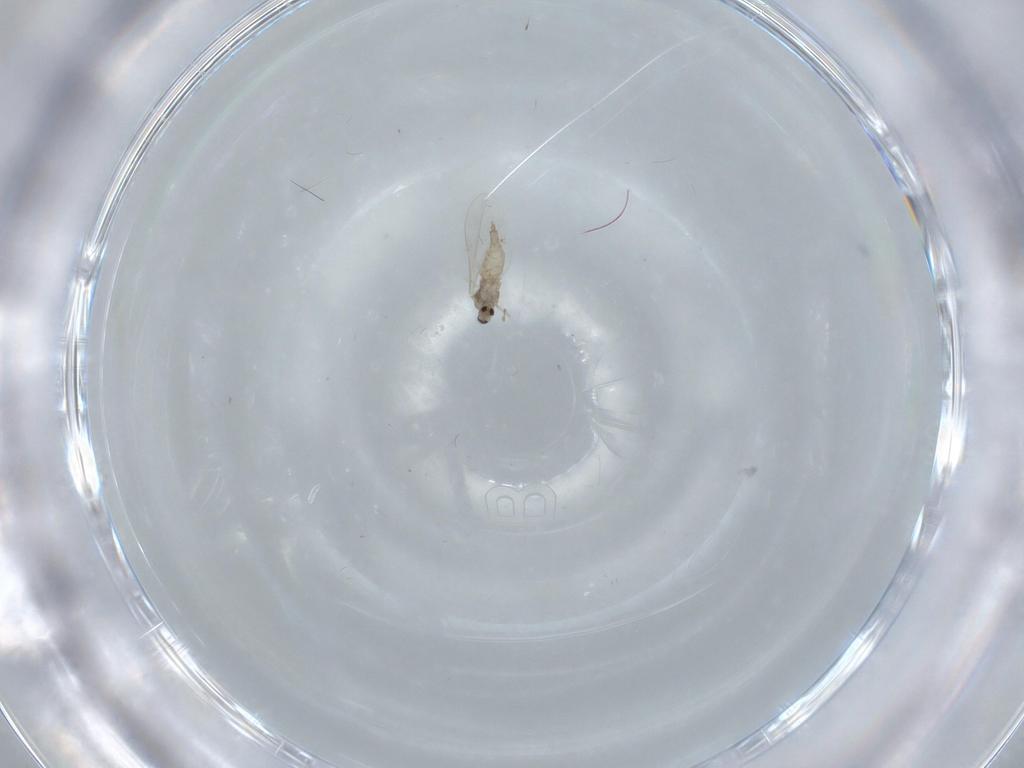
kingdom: Animalia
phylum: Arthropoda
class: Insecta
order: Diptera
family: Cecidomyiidae
